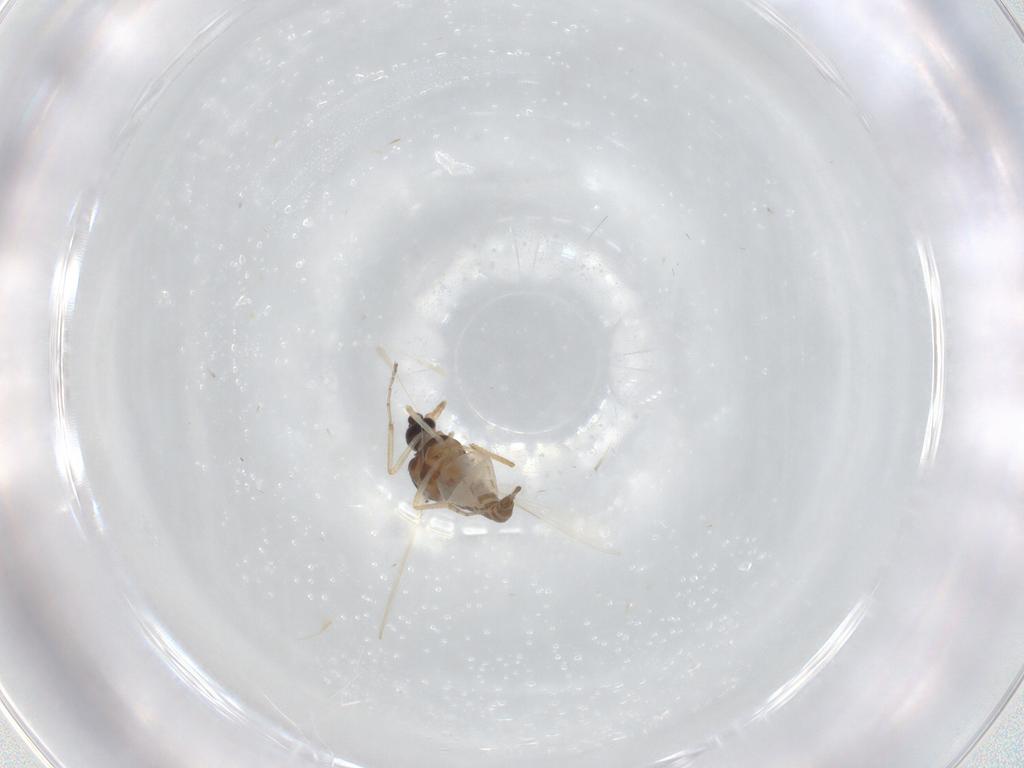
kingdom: Animalia
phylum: Arthropoda
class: Insecta
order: Diptera
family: Ceratopogonidae
